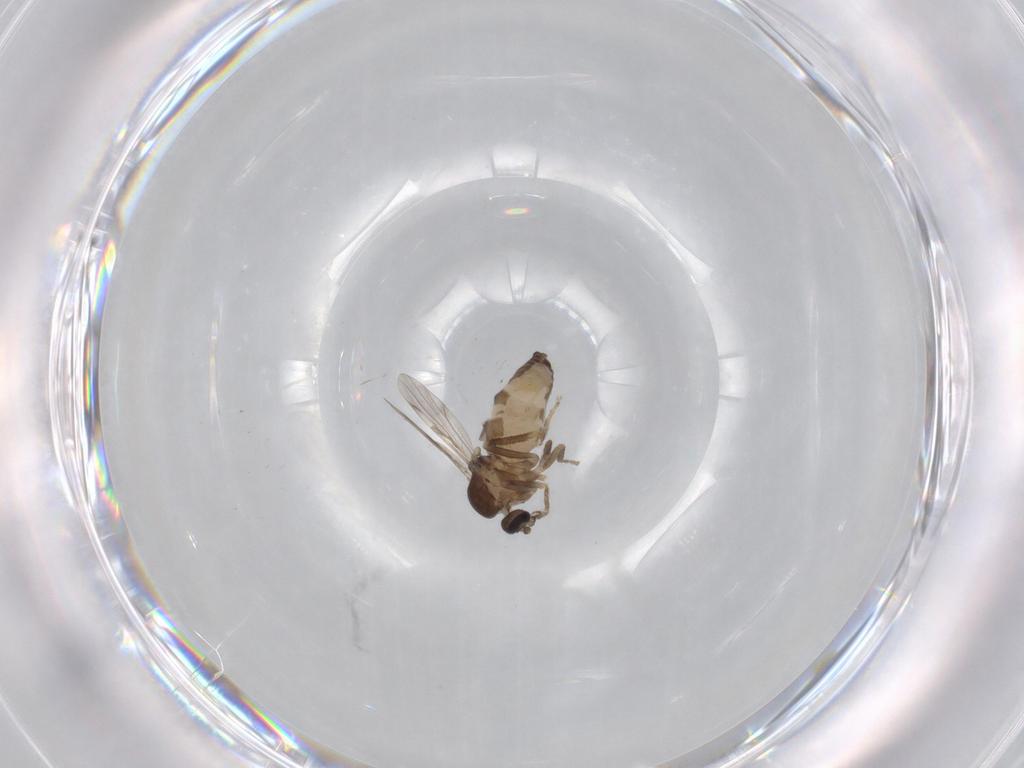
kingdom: Animalia
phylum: Arthropoda
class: Insecta
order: Diptera
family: Ceratopogonidae
